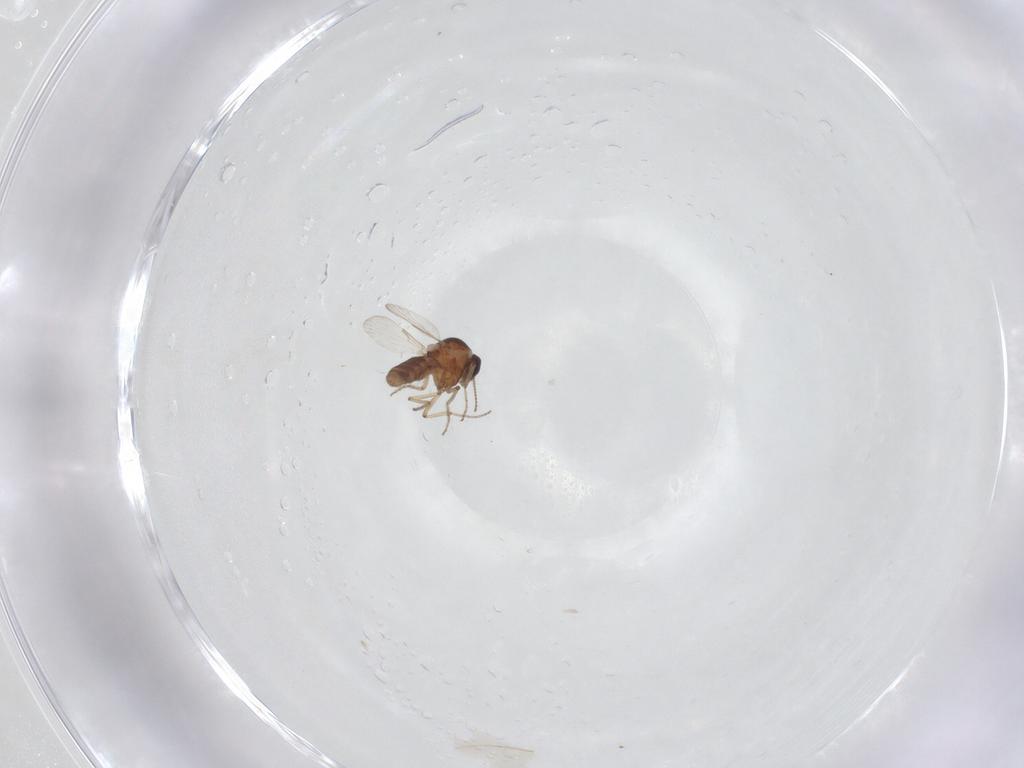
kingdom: Animalia
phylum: Arthropoda
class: Insecta
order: Diptera
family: Ceratopogonidae
